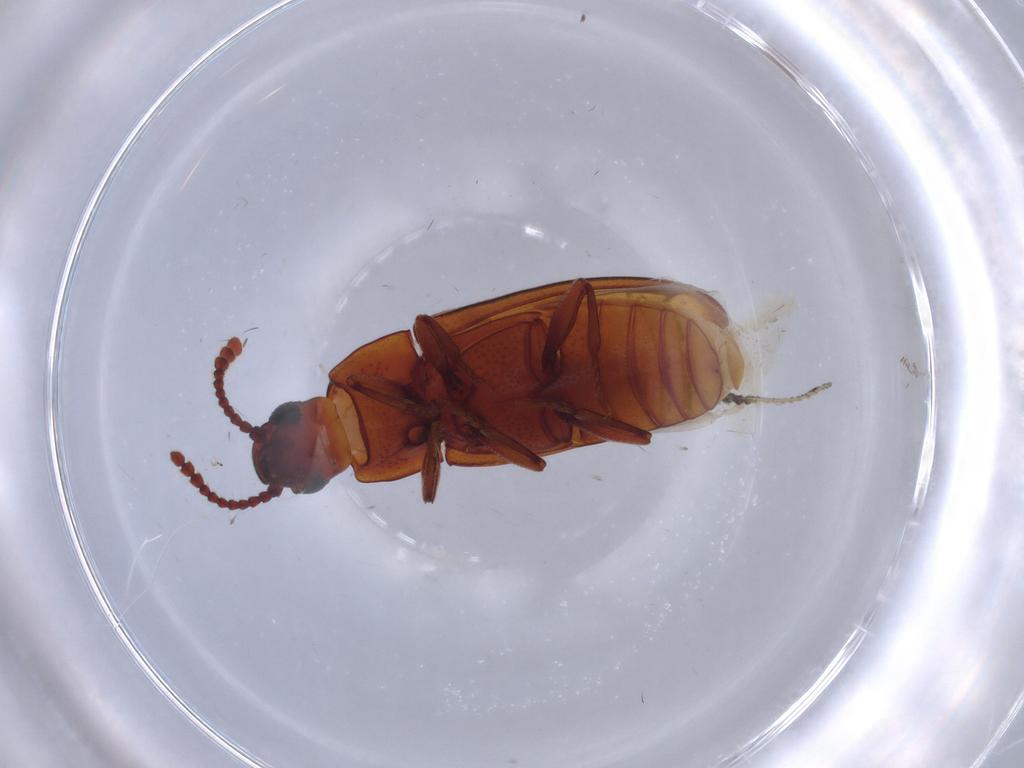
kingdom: Animalia
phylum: Arthropoda
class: Insecta
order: Coleoptera
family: Erotylidae
